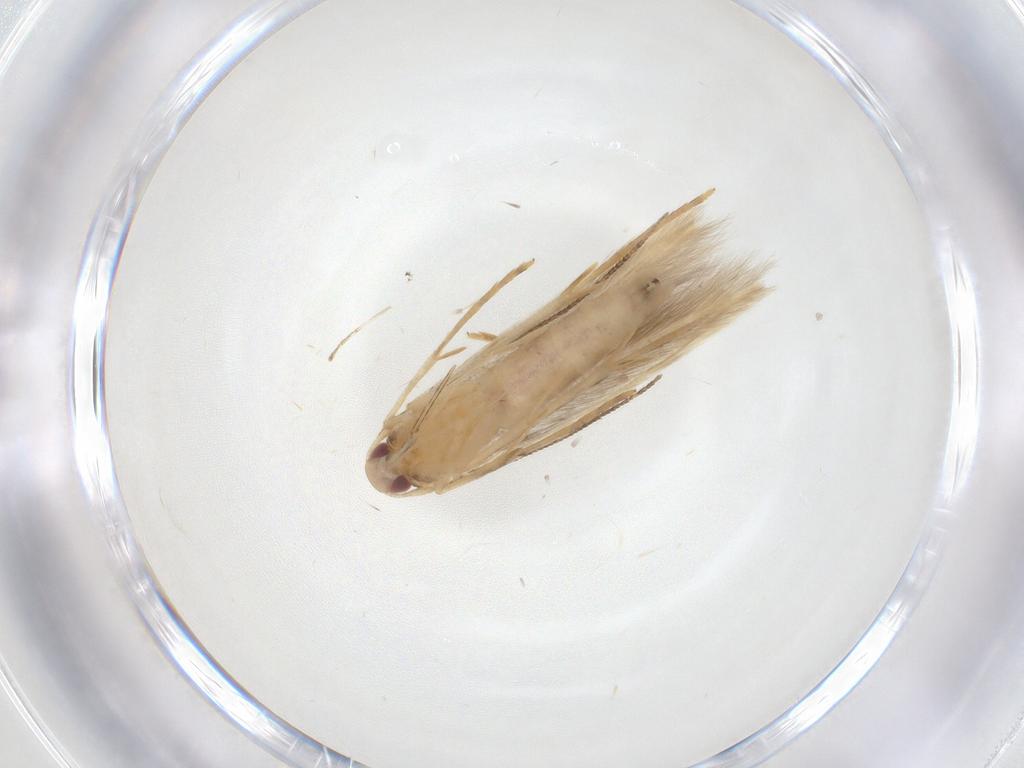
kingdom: Animalia
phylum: Arthropoda
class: Insecta
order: Lepidoptera
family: Cosmopterigidae
